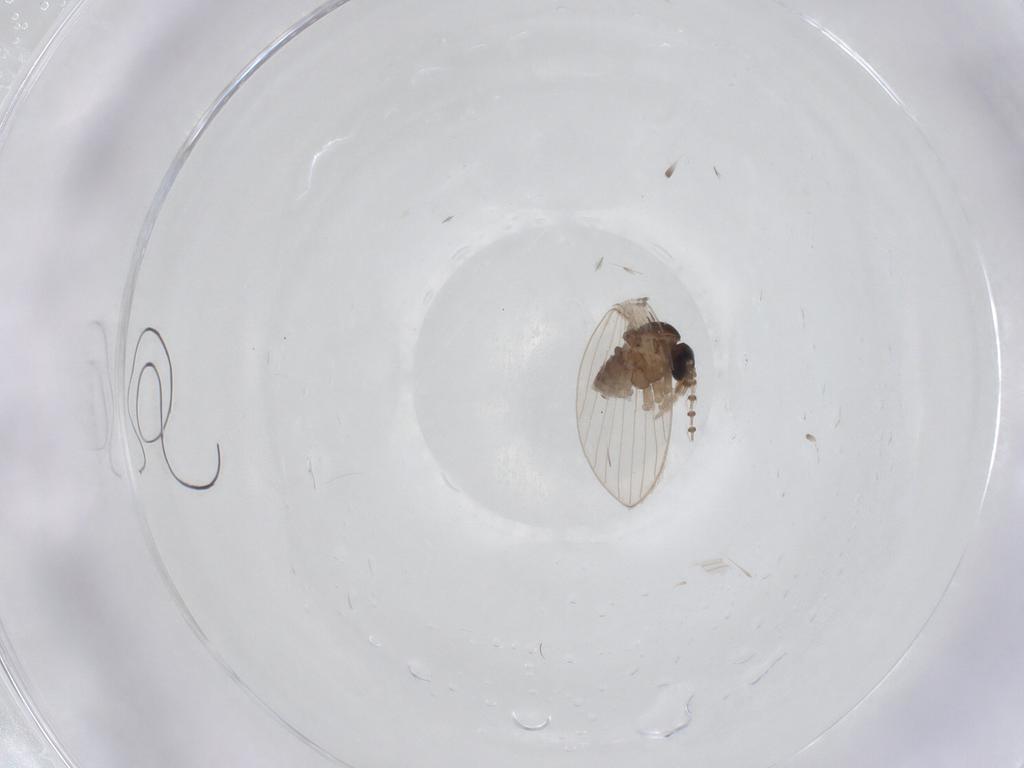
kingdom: Animalia
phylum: Arthropoda
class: Insecta
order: Diptera
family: Psychodidae
